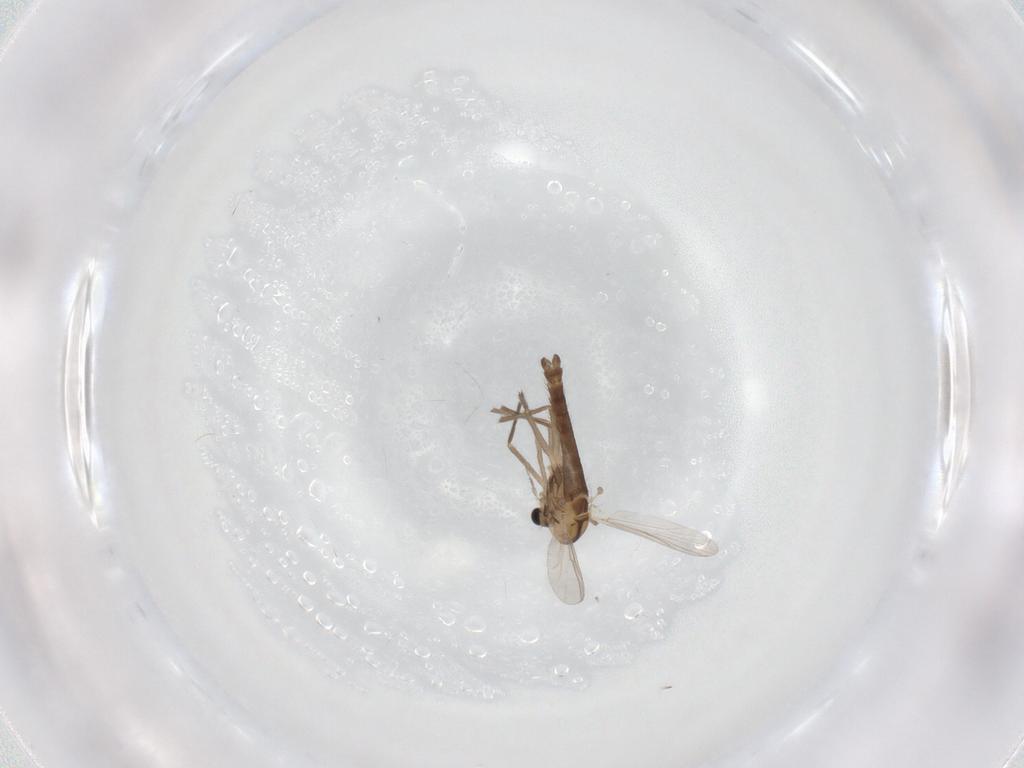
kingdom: Animalia
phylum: Arthropoda
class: Insecta
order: Diptera
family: Chironomidae
